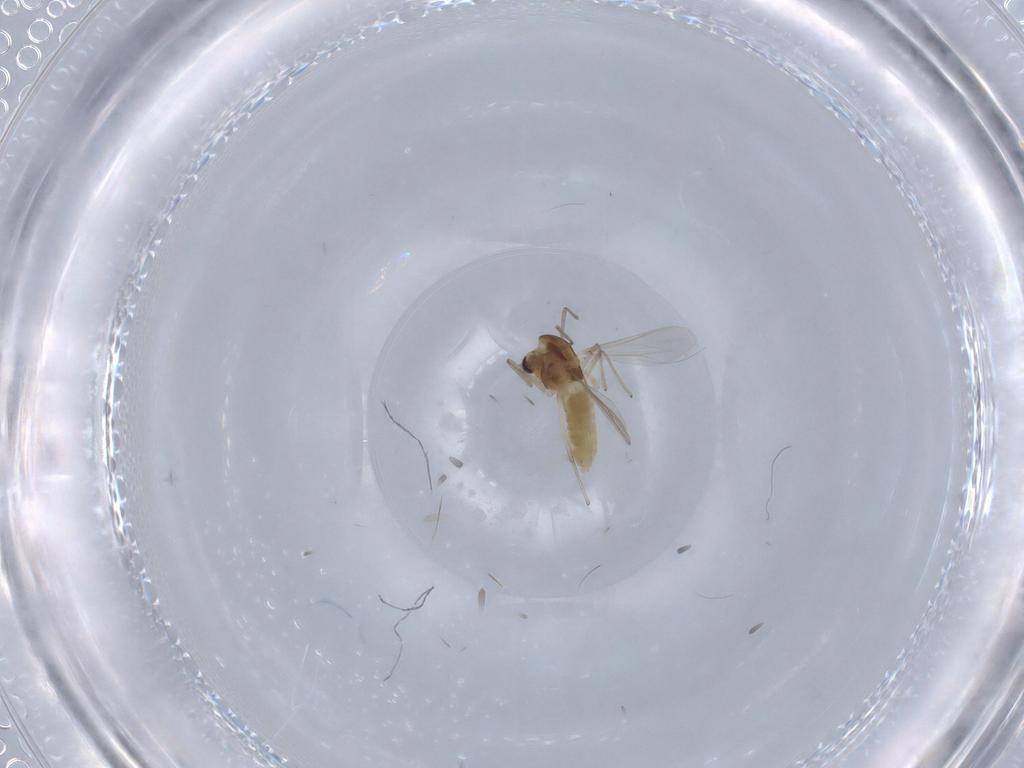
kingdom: Animalia
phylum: Arthropoda
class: Insecta
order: Diptera
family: Chironomidae
